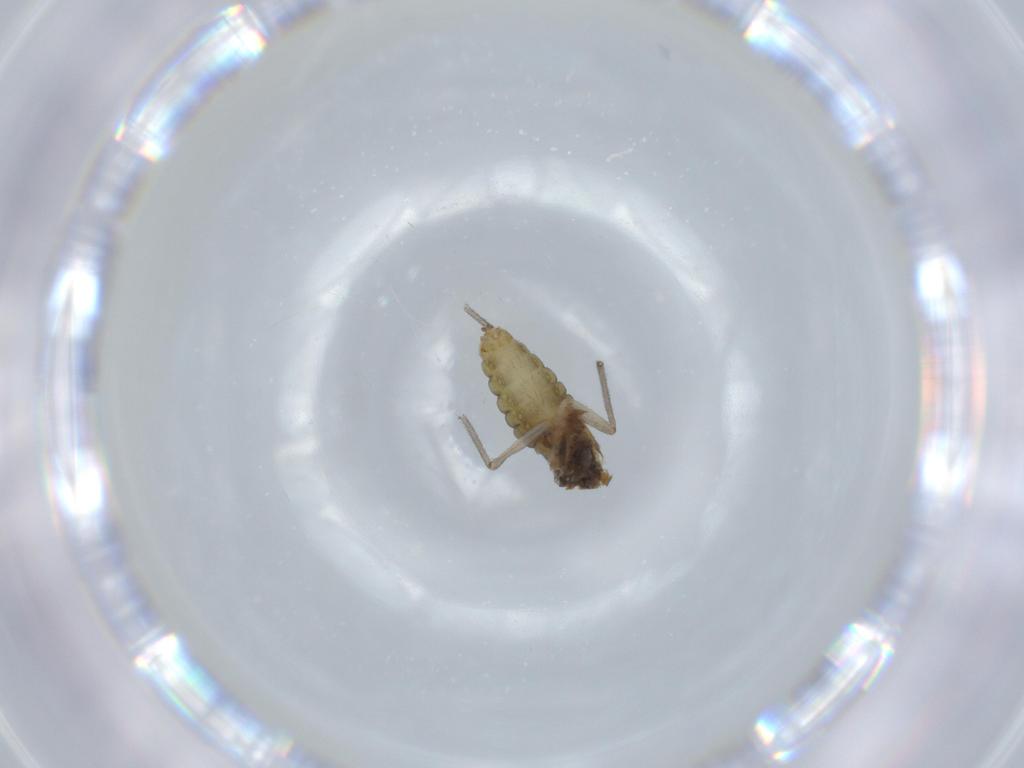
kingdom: Animalia
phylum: Arthropoda
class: Insecta
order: Diptera
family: Chironomidae
